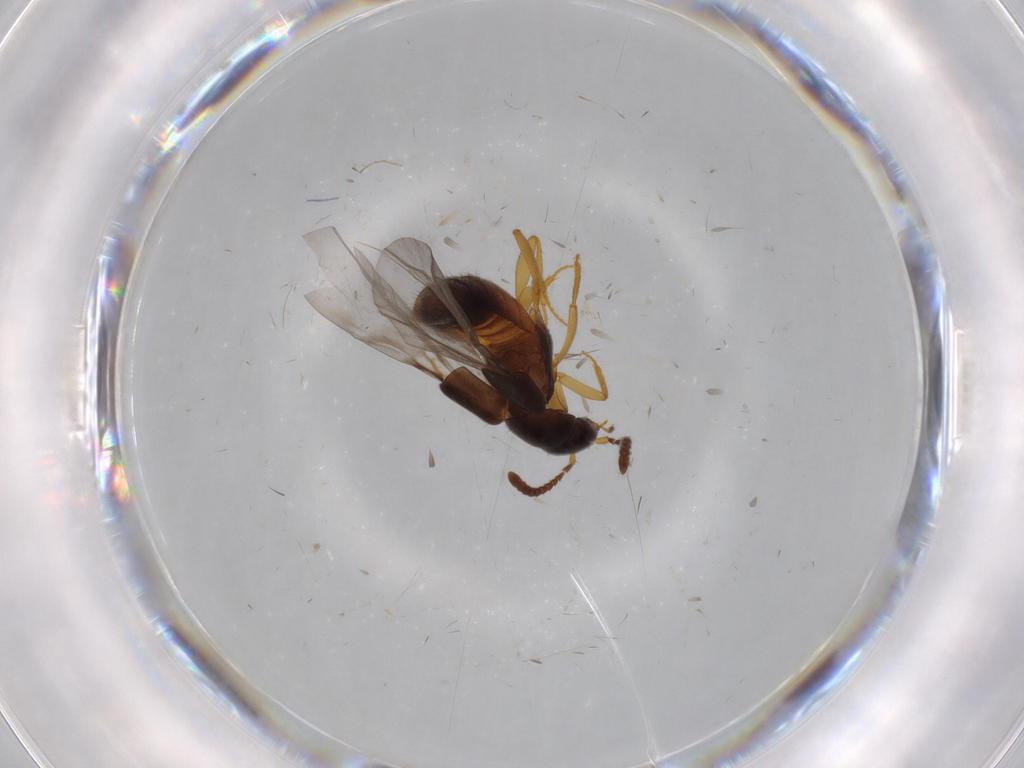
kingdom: Animalia
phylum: Arthropoda
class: Insecta
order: Coleoptera
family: Staphylinidae
